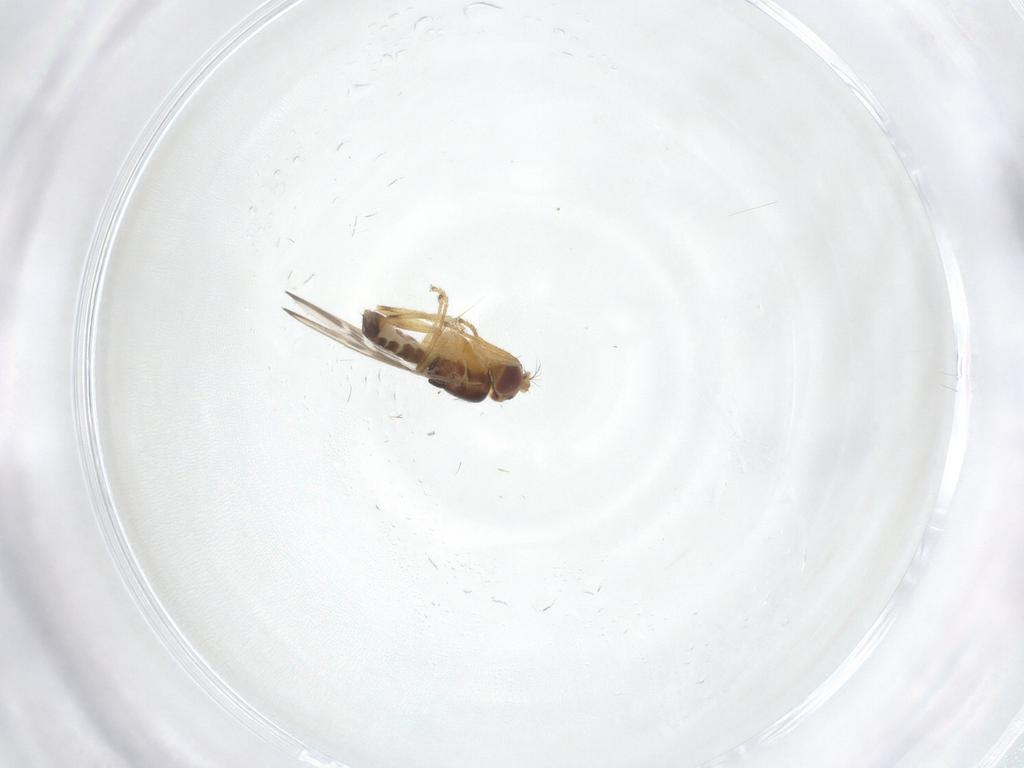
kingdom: Animalia
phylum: Arthropoda
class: Insecta
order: Diptera
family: Periscelididae
